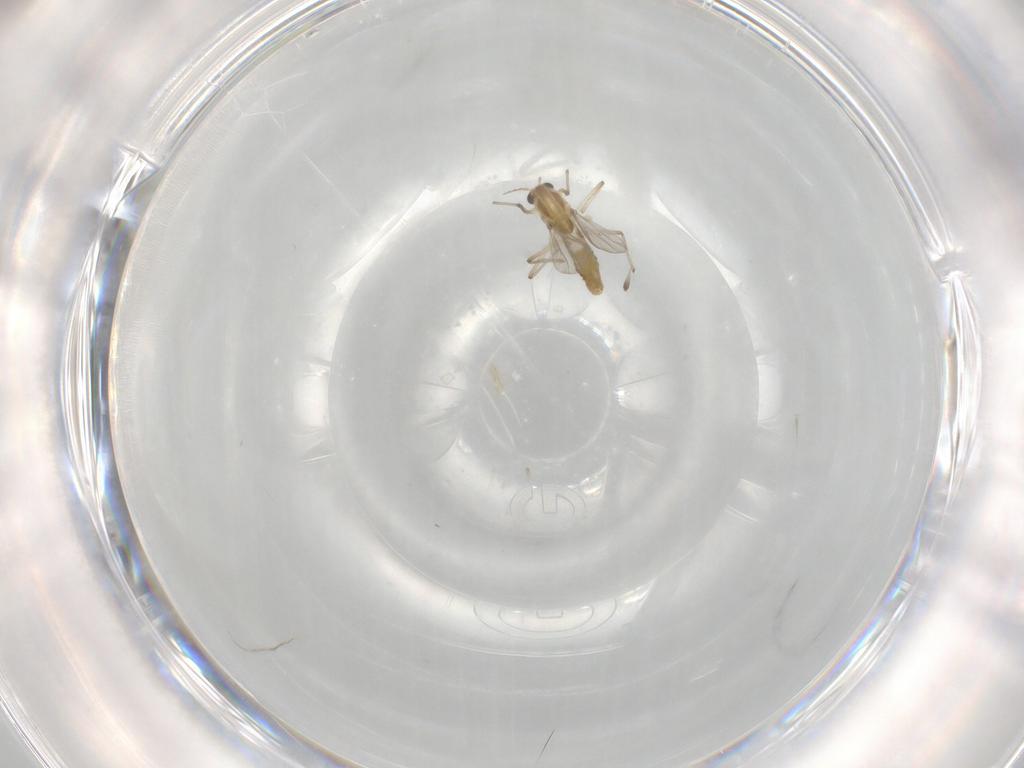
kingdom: Animalia
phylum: Arthropoda
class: Insecta
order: Diptera
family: Chironomidae
